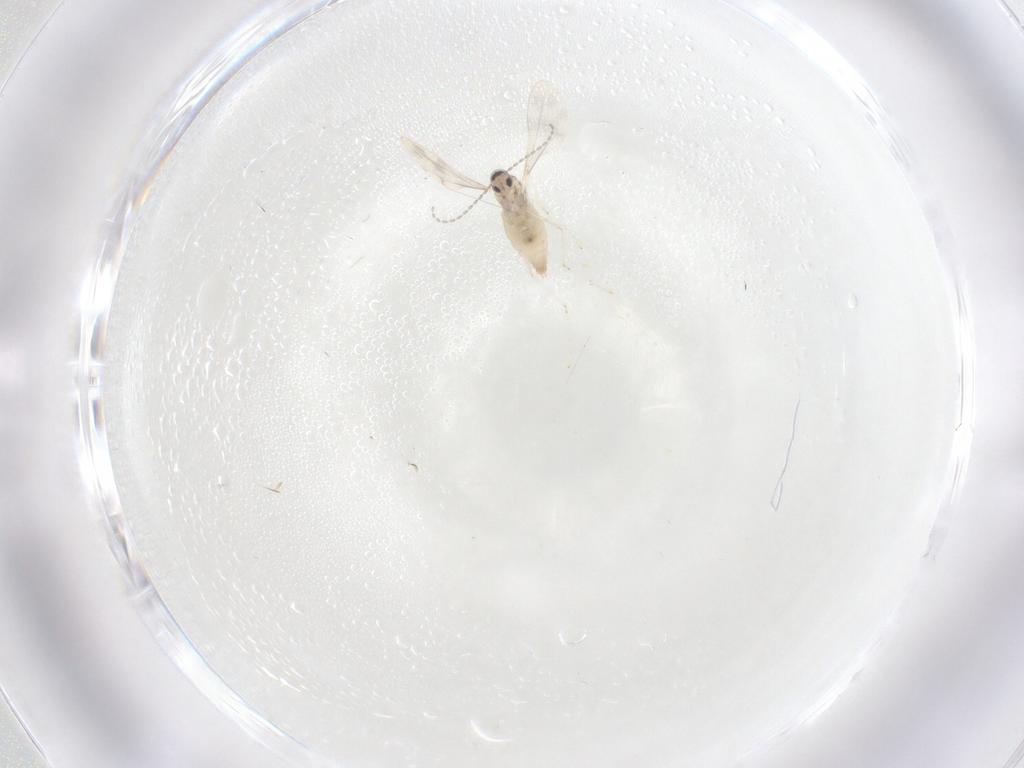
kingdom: Animalia
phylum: Arthropoda
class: Insecta
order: Diptera
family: Cecidomyiidae
